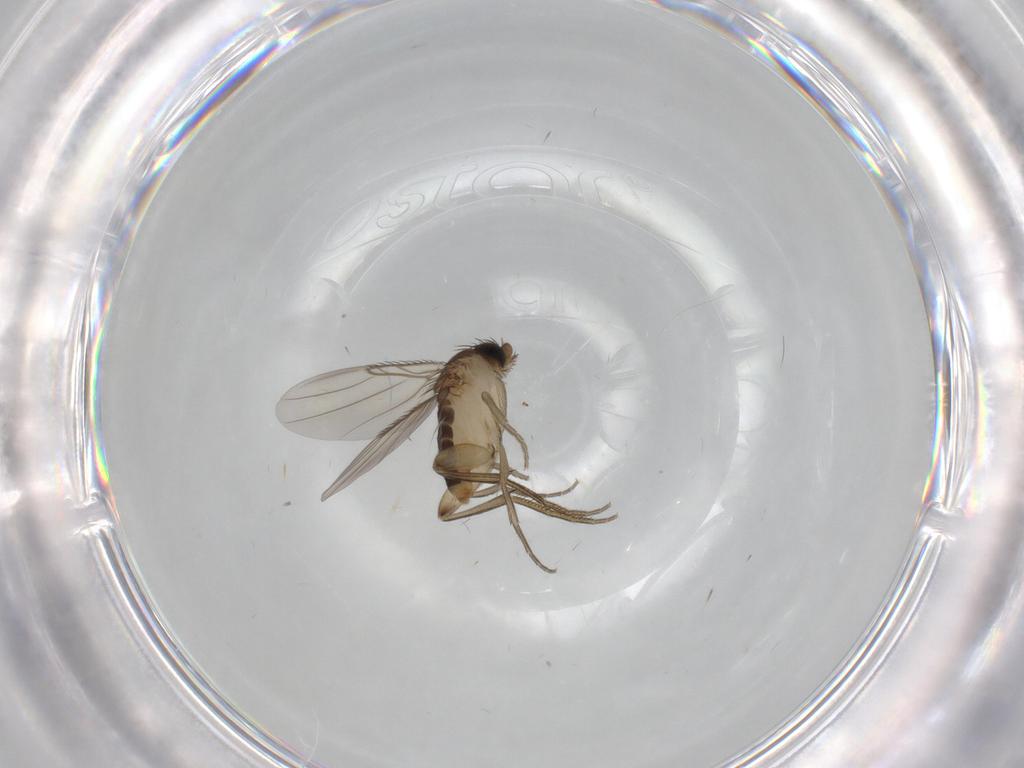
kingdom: Animalia
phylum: Arthropoda
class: Insecta
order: Diptera
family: Phoridae
